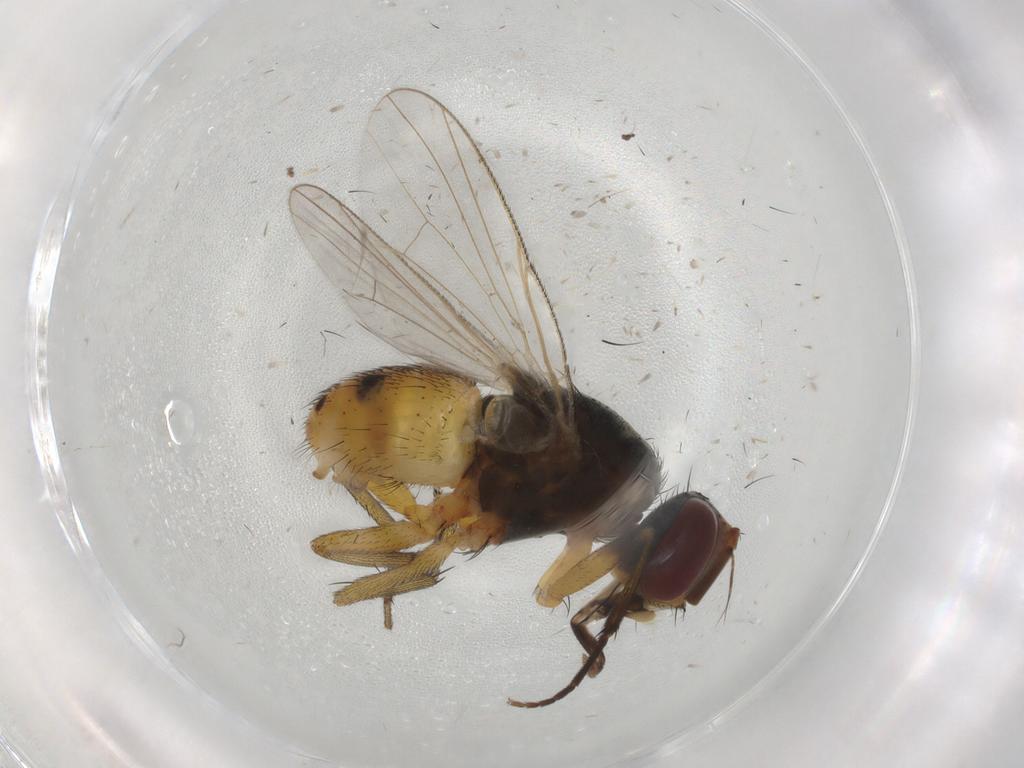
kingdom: Animalia
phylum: Arthropoda
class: Insecta
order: Diptera
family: Muscidae
